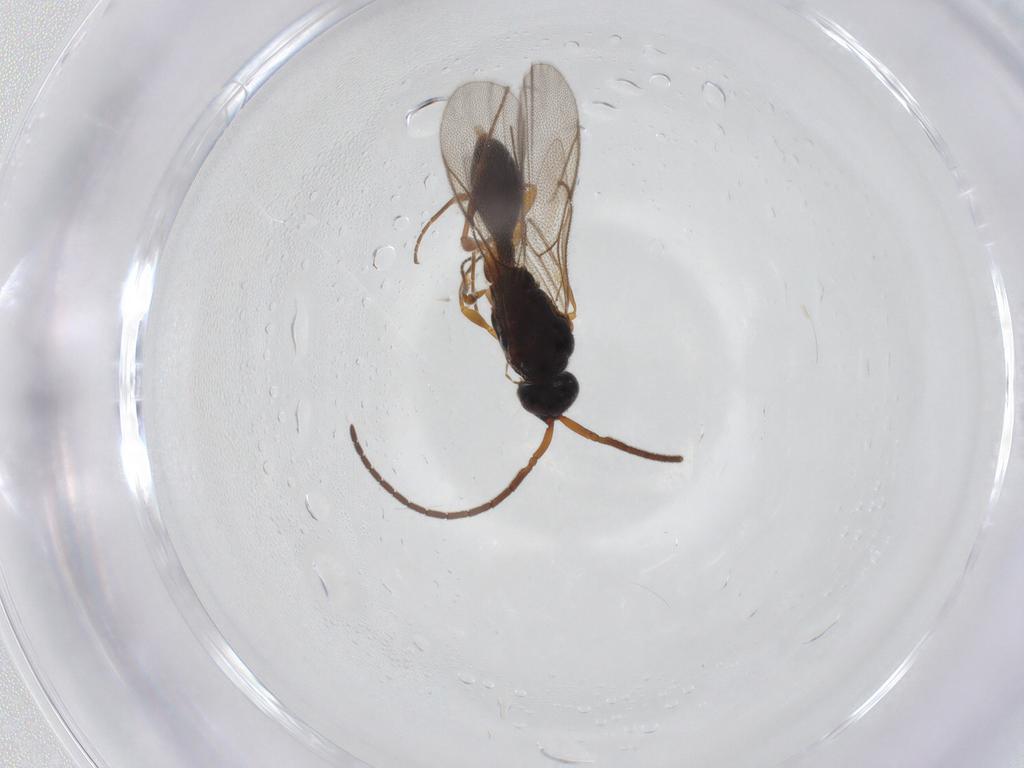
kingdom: Animalia
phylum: Arthropoda
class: Insecta
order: Hymenoptera
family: Diapriidae
